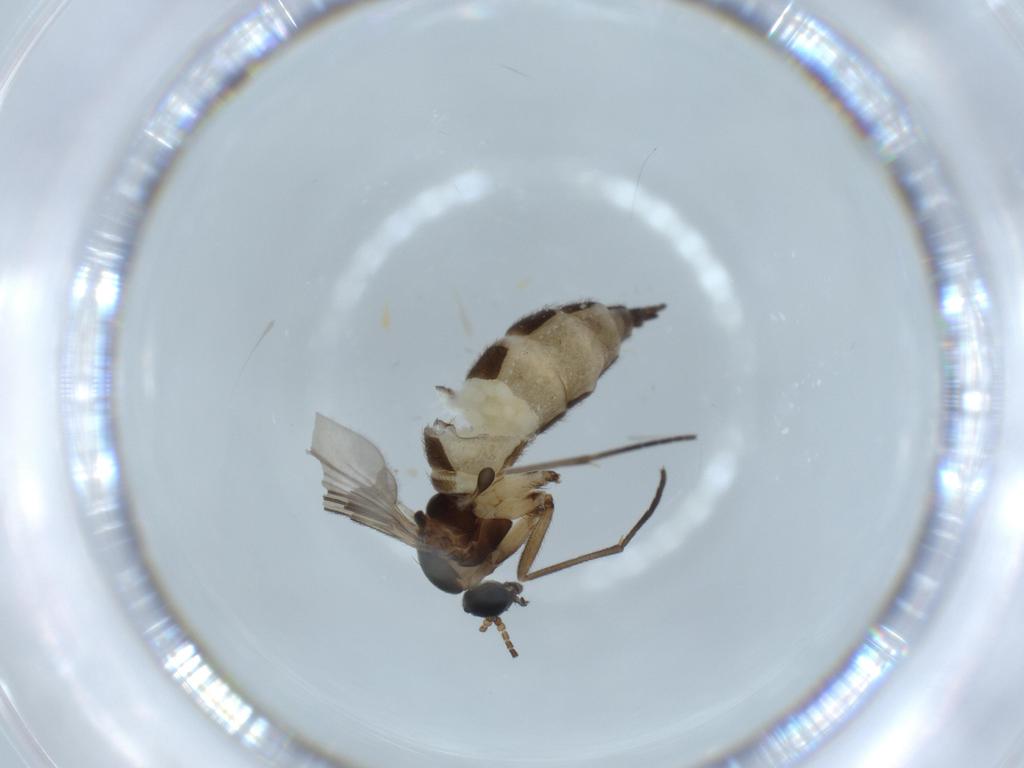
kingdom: Animalia
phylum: Arthropoda
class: Insecta
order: Diptera
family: Sciaridae
